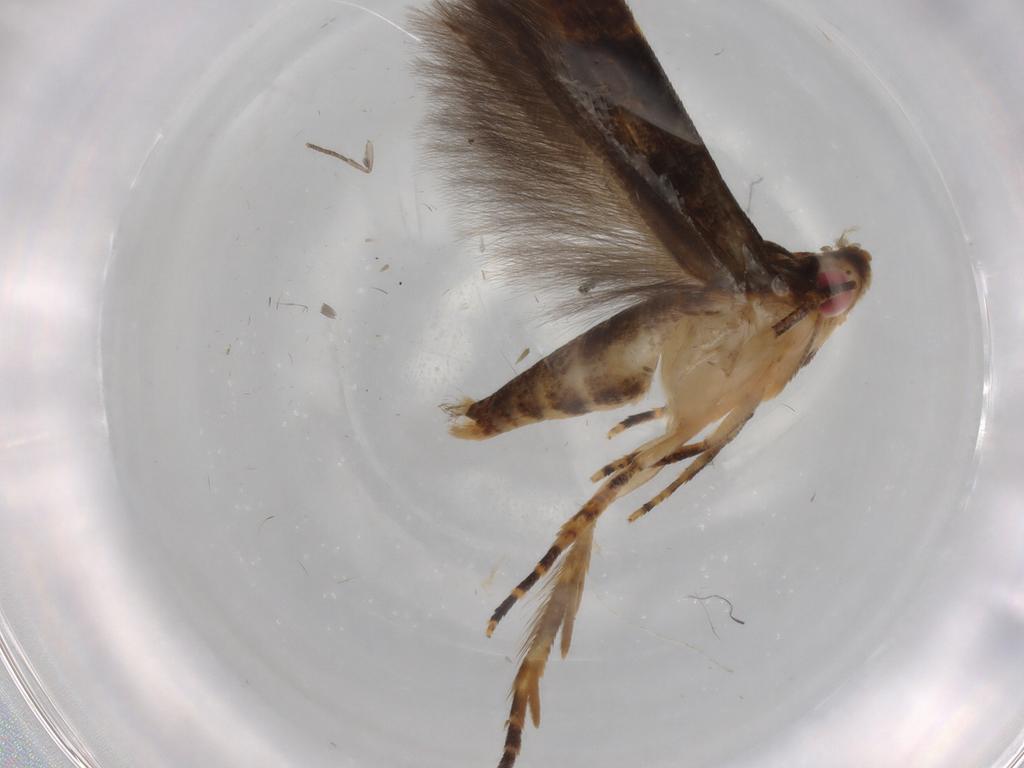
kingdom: Animalia
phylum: Arthropoda
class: Insecta
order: Lepidoptera
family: Cosmopterigidae
